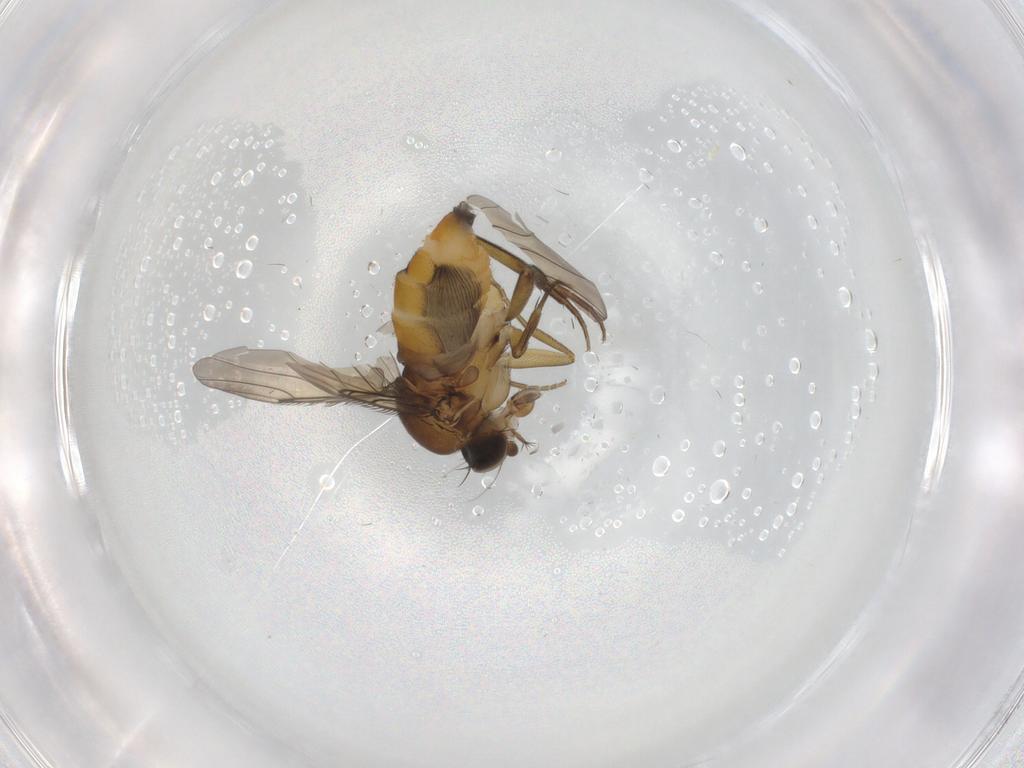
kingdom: Animalia
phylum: Arthropoda
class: Insecta
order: Diptera
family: Phoridae
